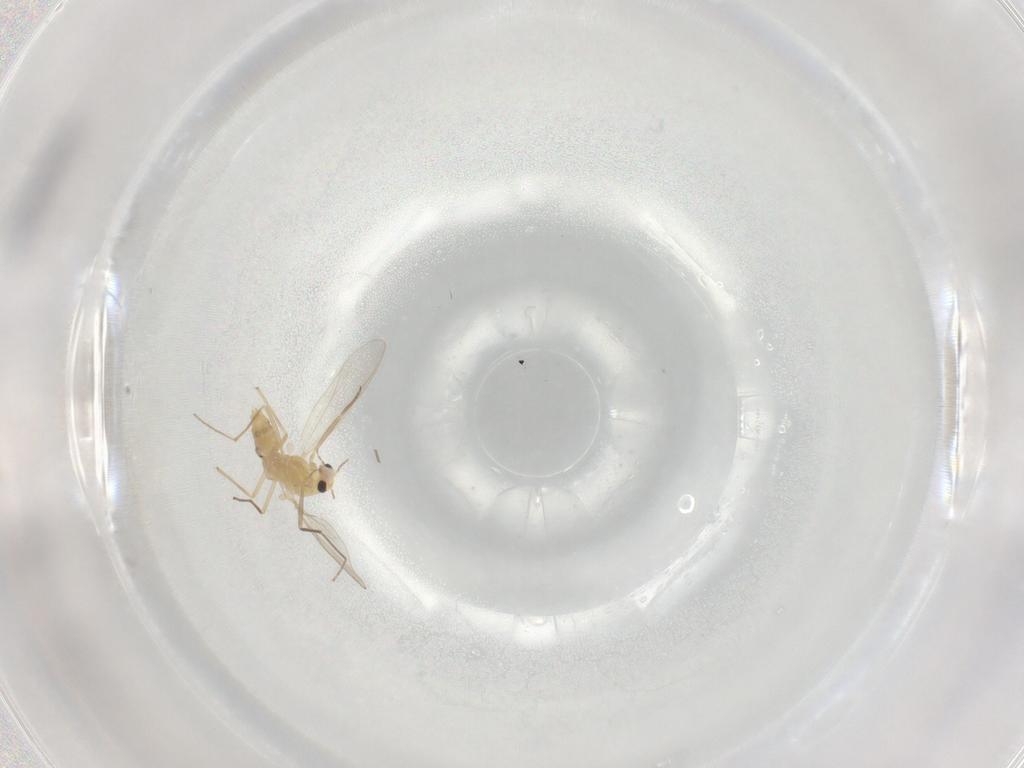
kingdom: Animalia
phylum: Arthropoda
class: Insecta
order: Diptera
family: Chironomidae
